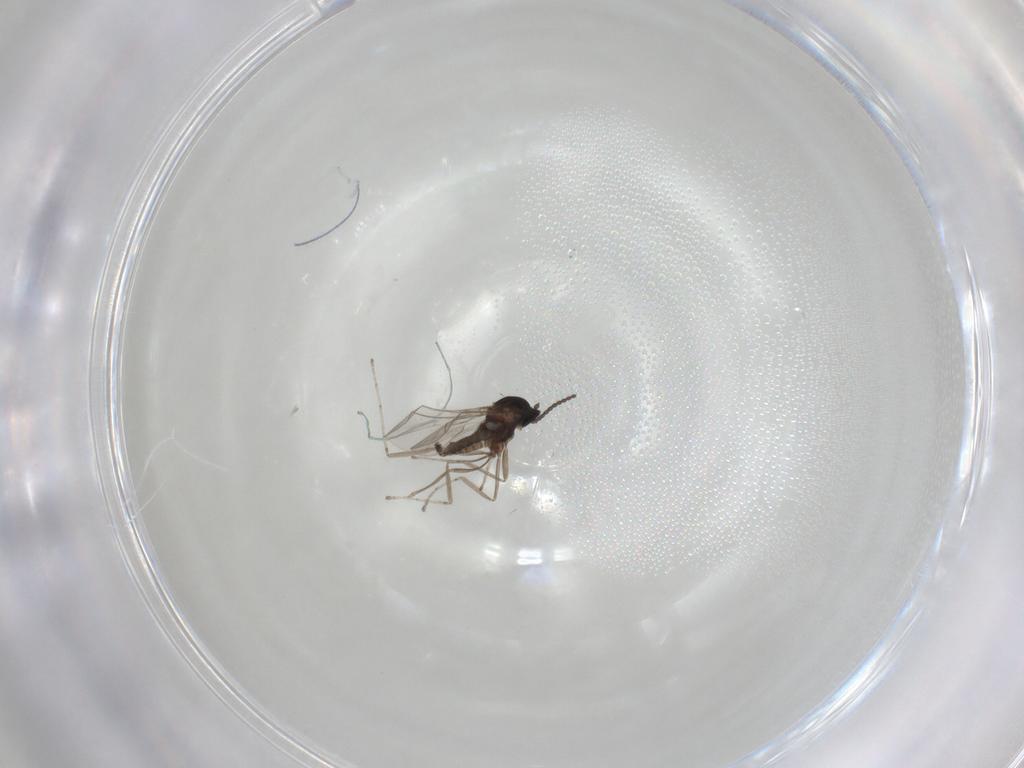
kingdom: Animalia
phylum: Arthropoda
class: Insecta
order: Diptera
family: Cecidomyiidae
